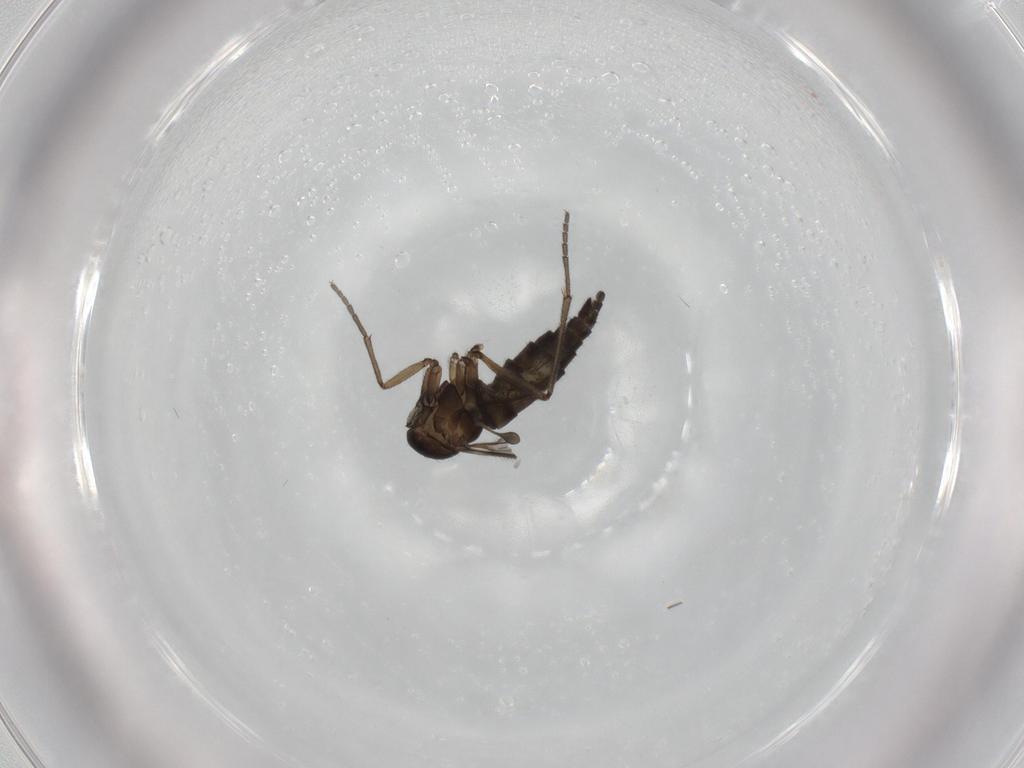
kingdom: Animalia
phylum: Arthropoda
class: Insecta
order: Diptera
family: Sciaridae
